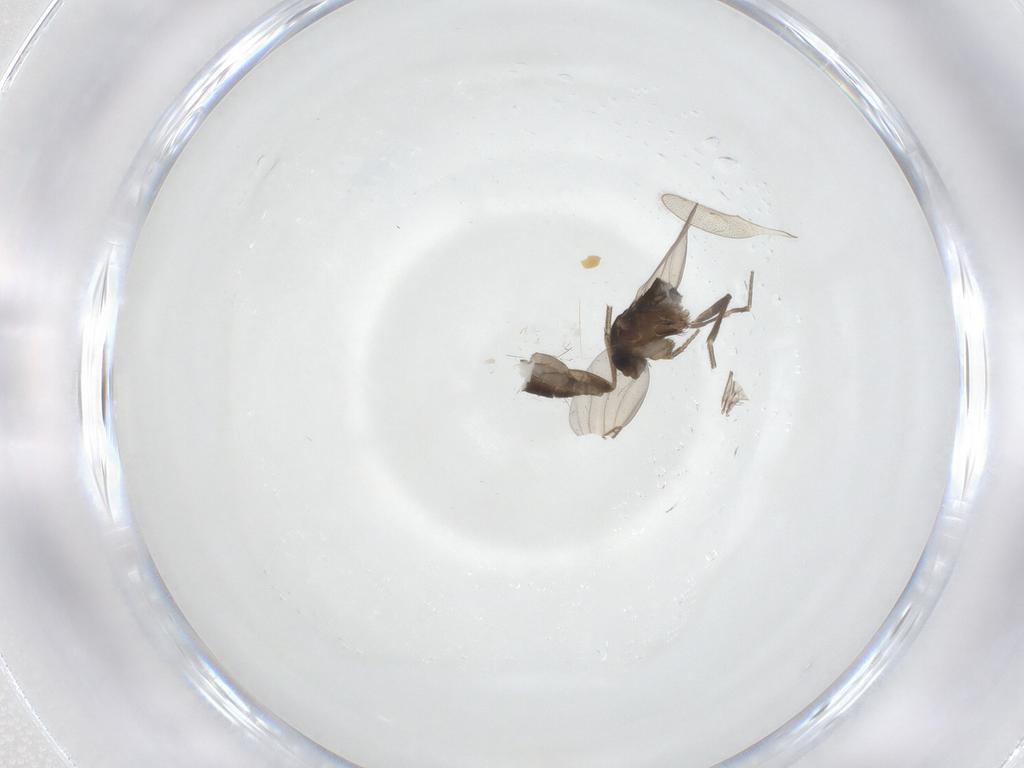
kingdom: Animalia
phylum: Arthropoda
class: Insecta
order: Diptera
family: Phoridae
